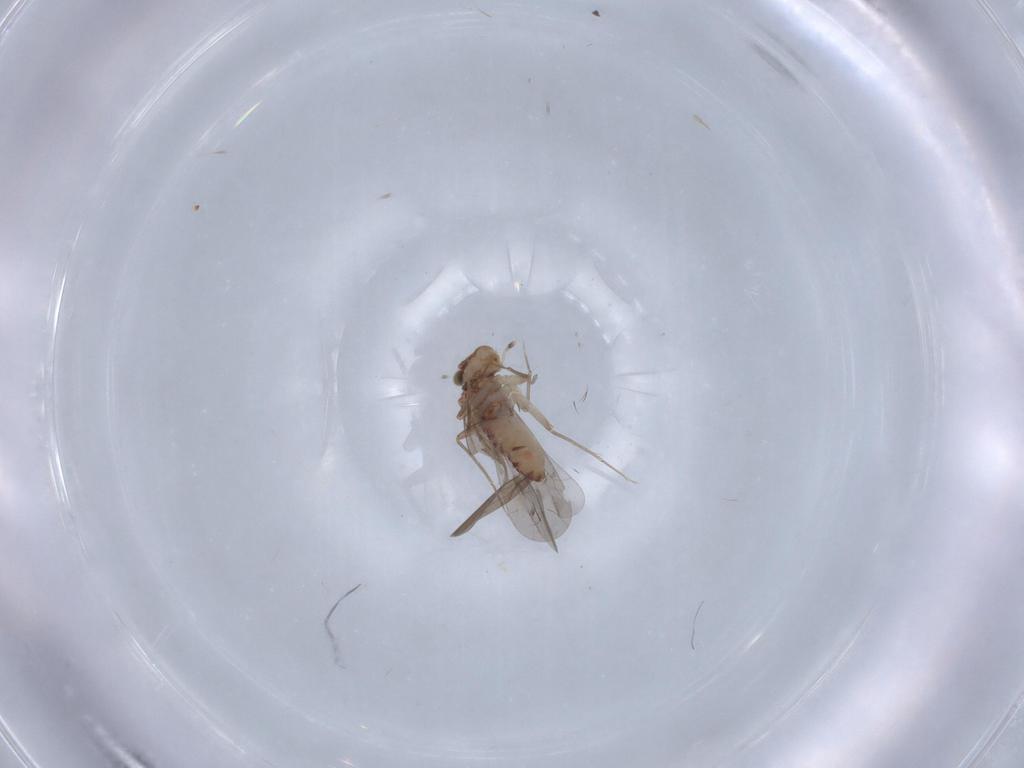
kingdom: Animalia
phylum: Arthropoda
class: Insecta
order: Psocodea
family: Lepidopsocidae
